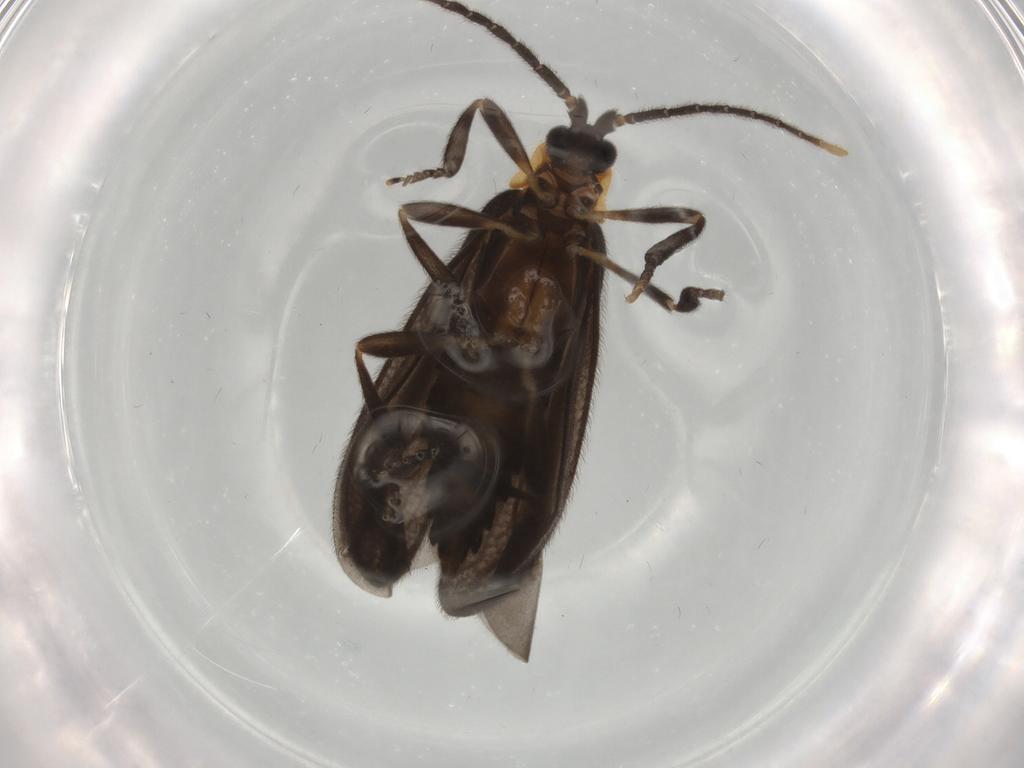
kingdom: Animalia
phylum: Arthropoda
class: Insecta
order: Coleoptera
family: Lycidae
